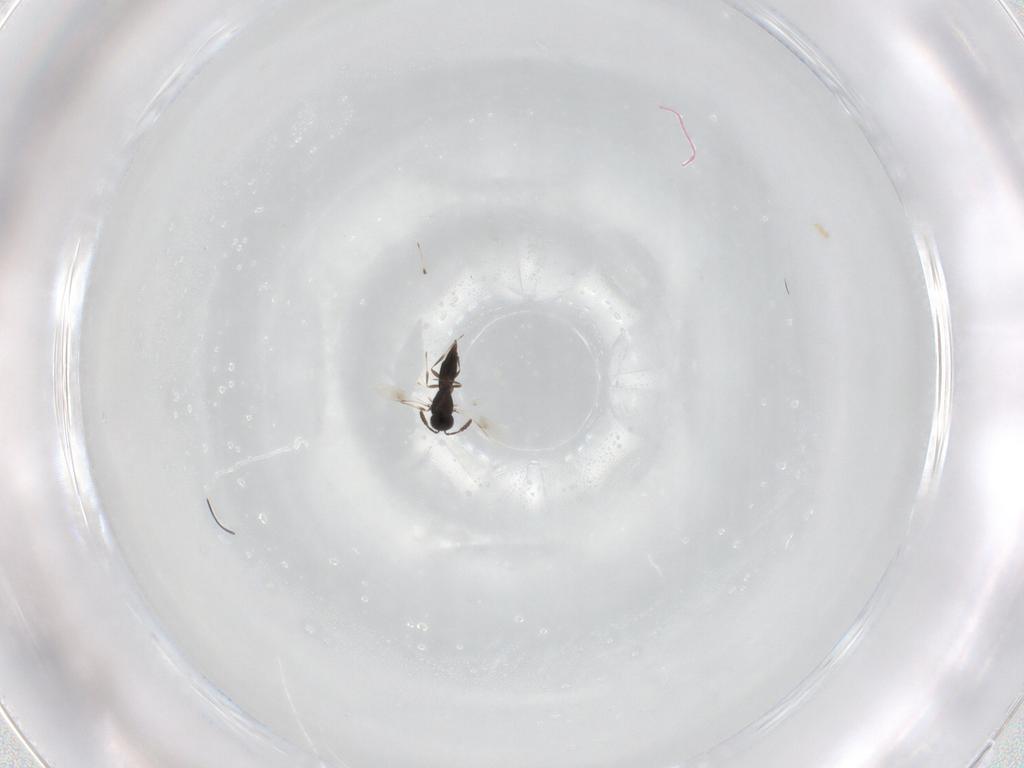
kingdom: Animalia
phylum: Arthropoda
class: Insecta
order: Hymenoptera
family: Scelionidae
